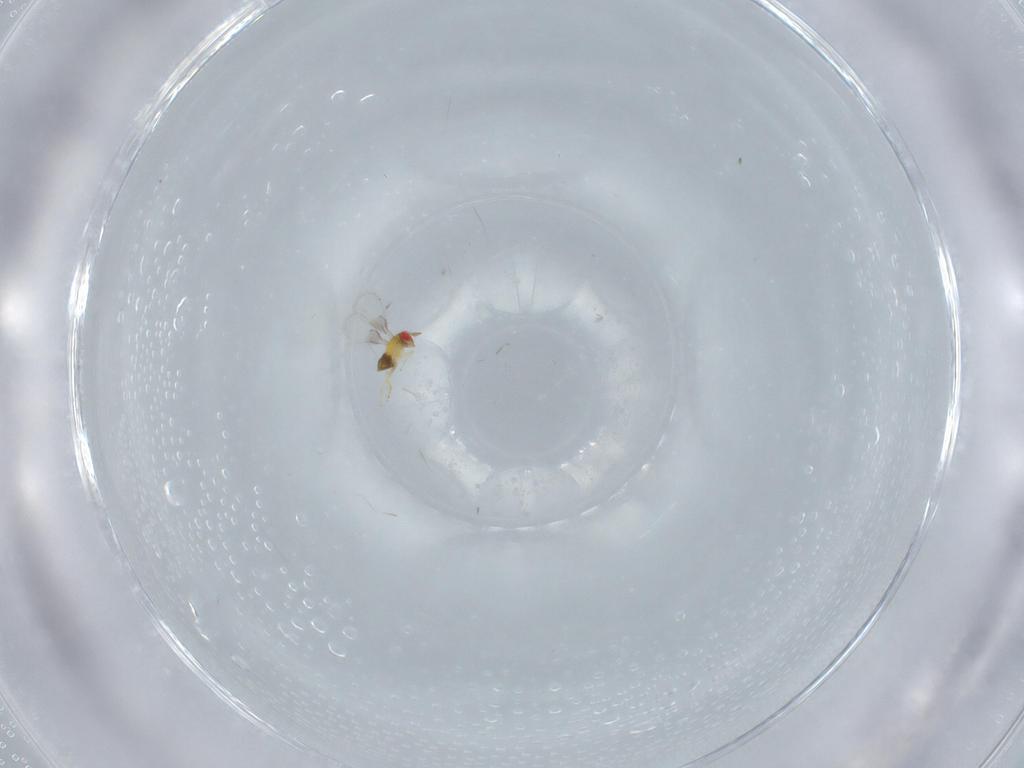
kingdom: Animalia
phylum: Arthropoda
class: Insecta
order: Hymenoptera
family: Trichogrammatidae
